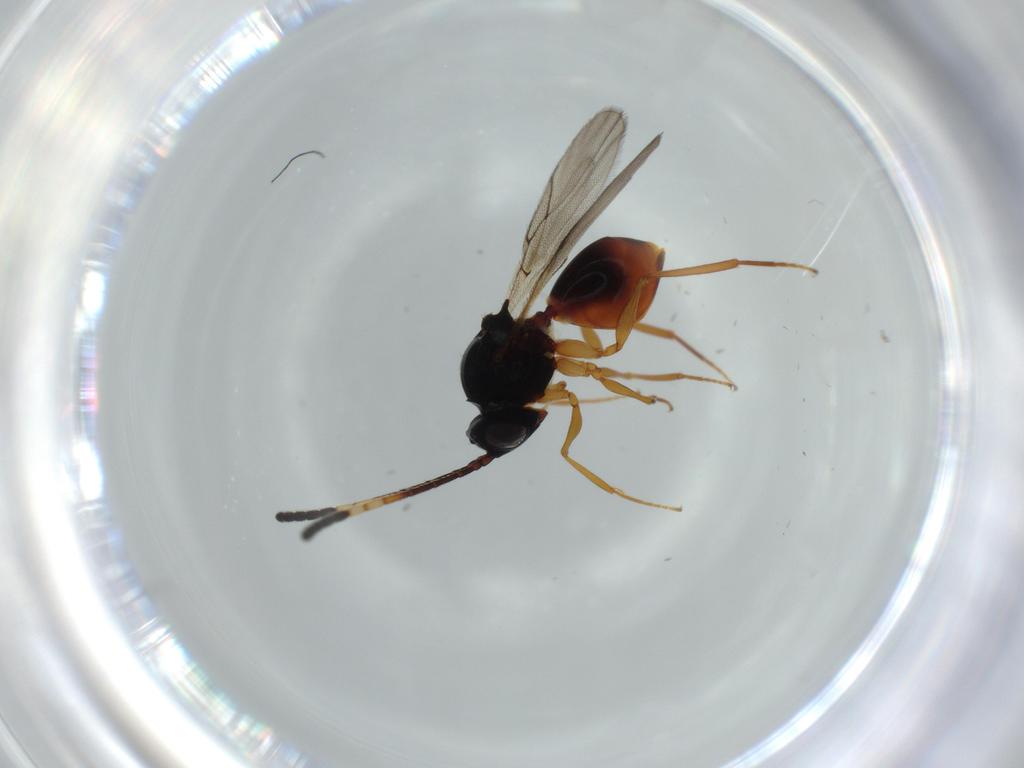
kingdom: Animalia
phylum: Arthropoda
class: Insecta
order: Hymenoptera
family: Figitidae
